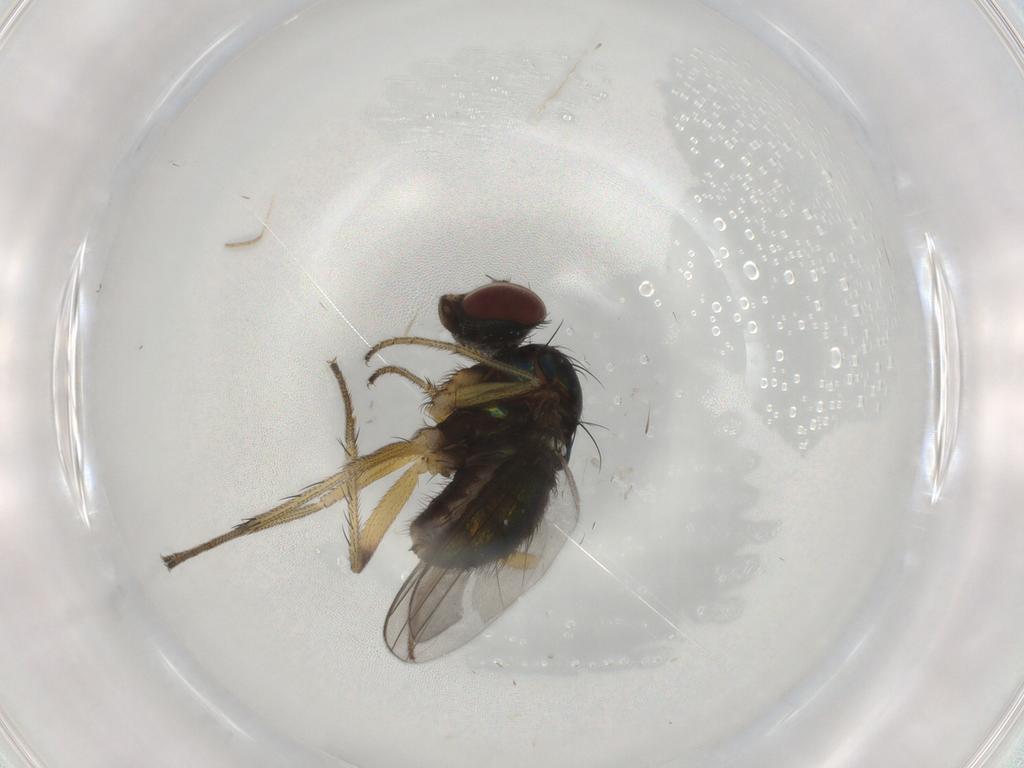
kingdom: Animalia
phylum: Arthropoda
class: Insecta
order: Diptera
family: Dolichopodidae
